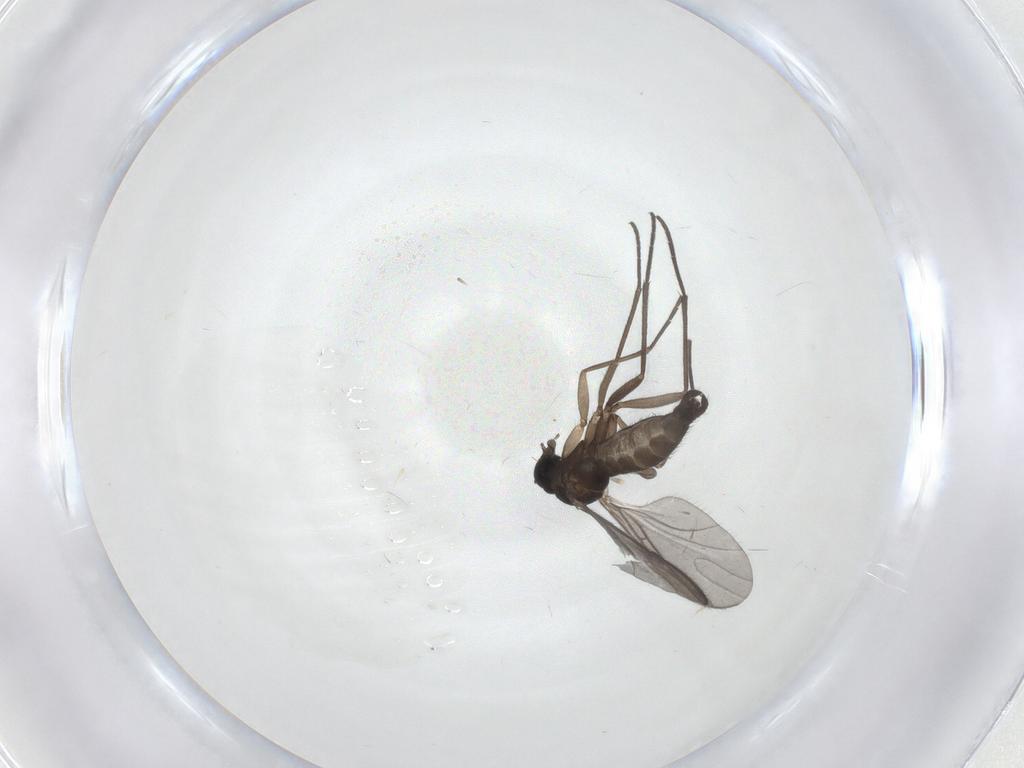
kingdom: Animalia
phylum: Arthropoda
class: Insecta
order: Diptera
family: Sciaridae
